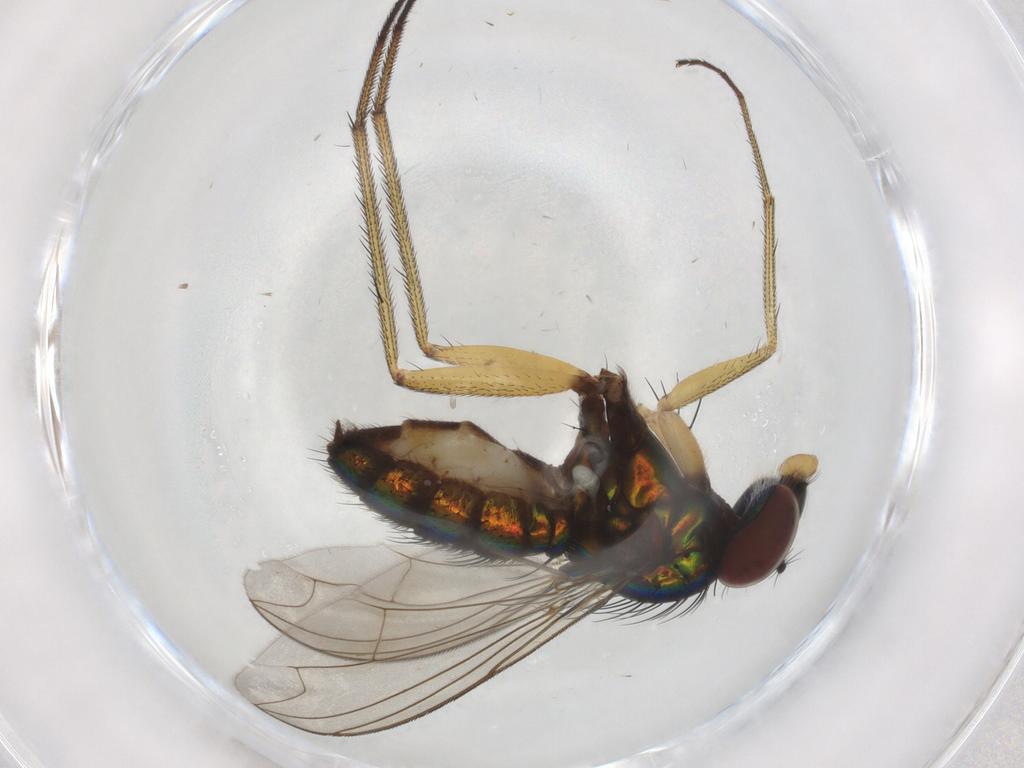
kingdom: Animalia
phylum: Arthropoda
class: Insecta
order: Diptera
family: Dolichopodidae
